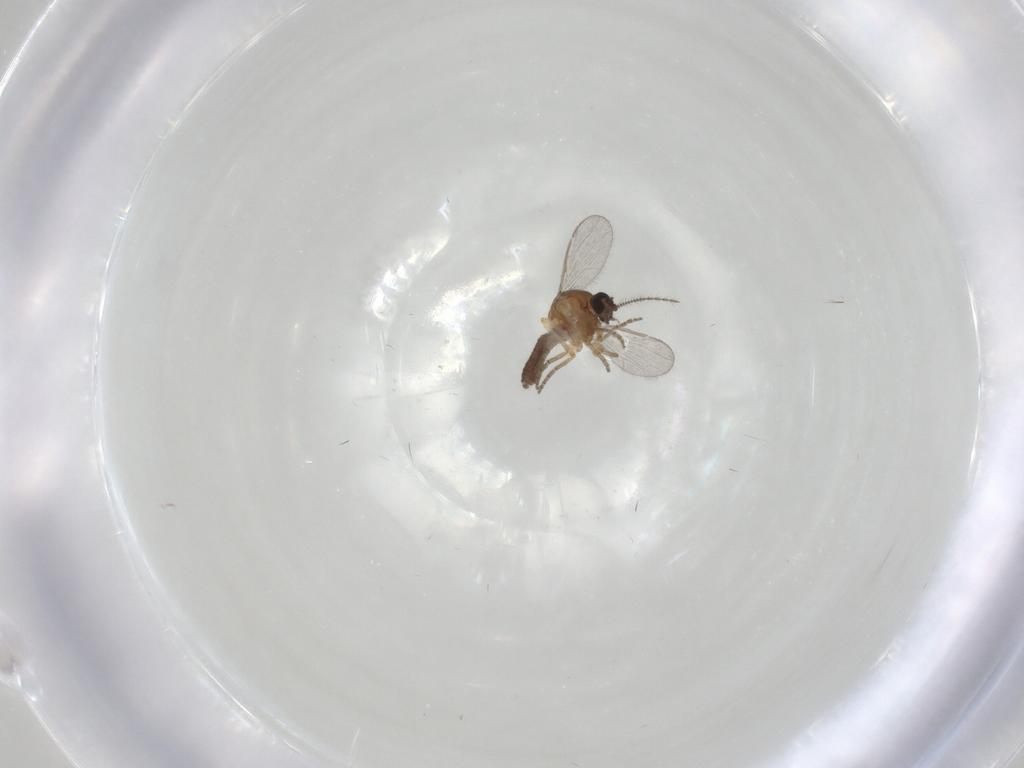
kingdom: Animalia
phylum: Arthropoda
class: Insecta
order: Diptera
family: Ceratopogonidae
